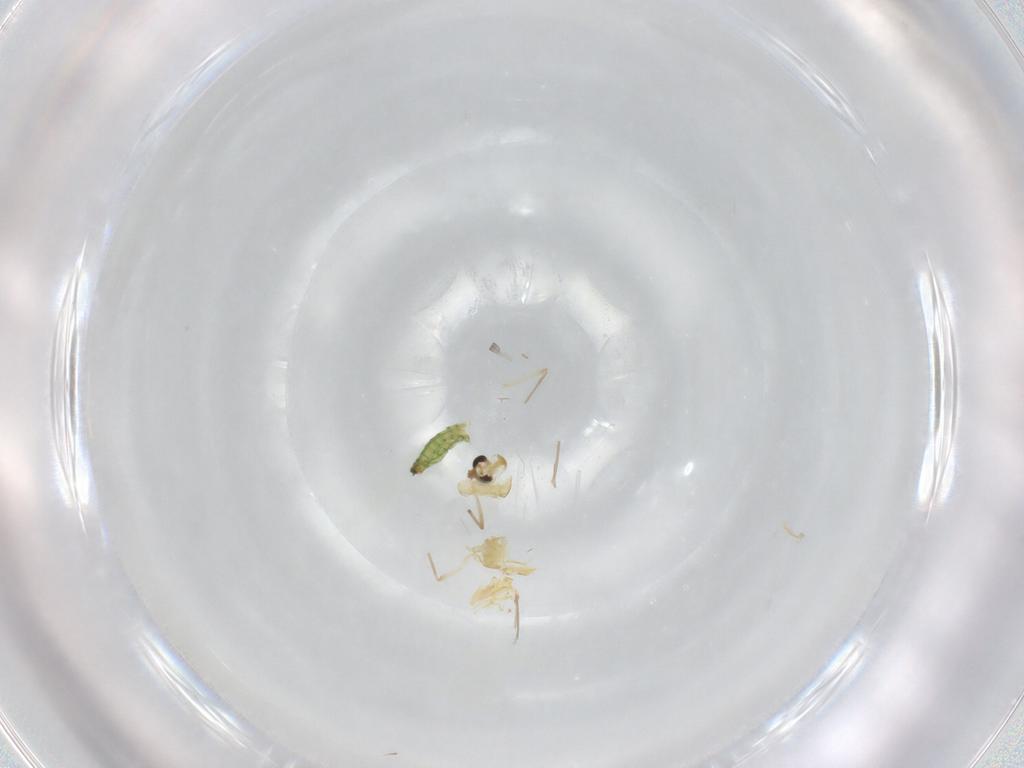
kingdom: Animalia
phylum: Arthropoda
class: Insecta
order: Diptera
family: Chironomidae
